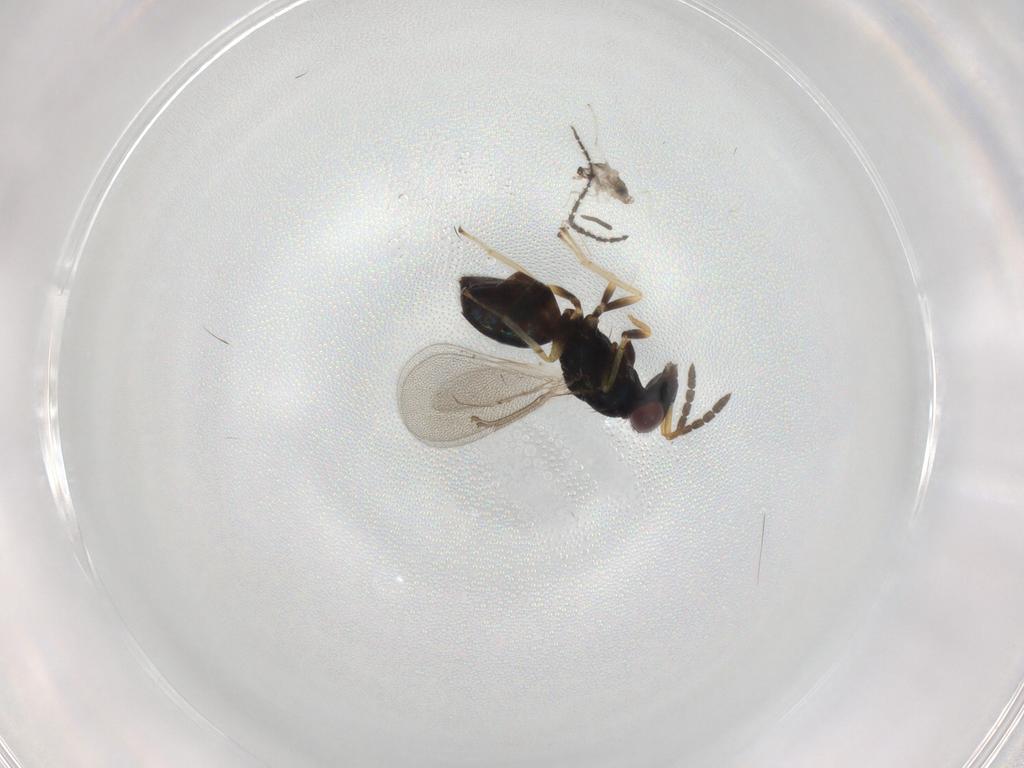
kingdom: Animalia
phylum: Arthropoda
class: Insecta
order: Hymenoptera
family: Eulophidae
